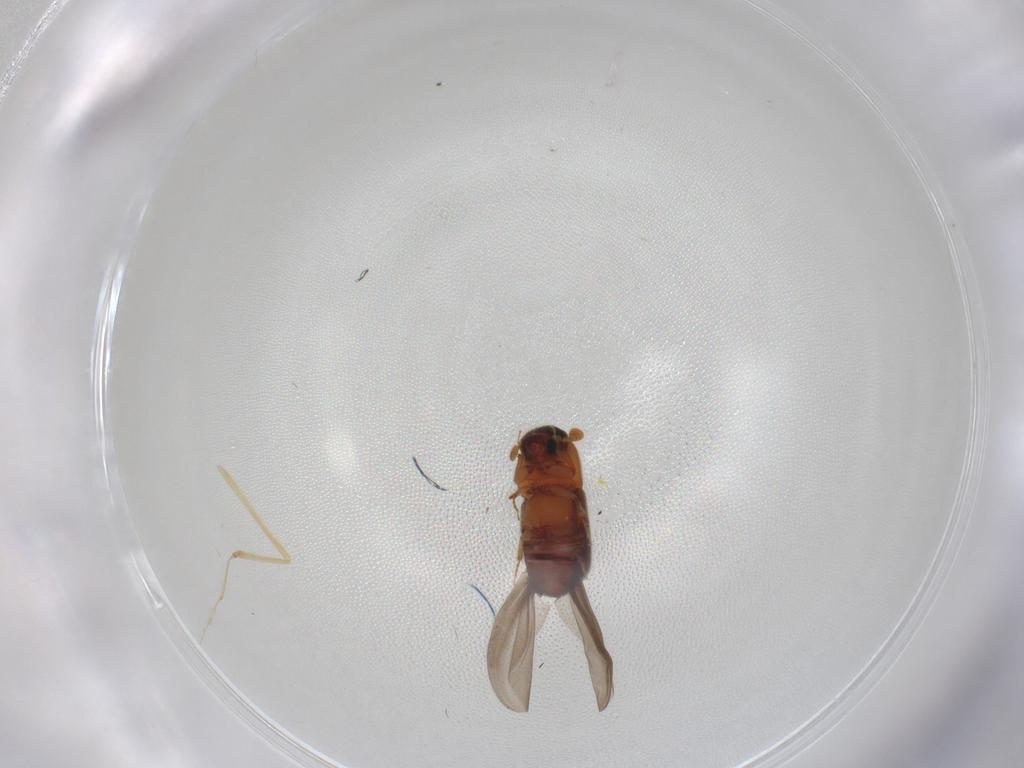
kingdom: Animalia
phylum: Arthropoda
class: Insecta
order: Coleoptera
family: Curculionidae
